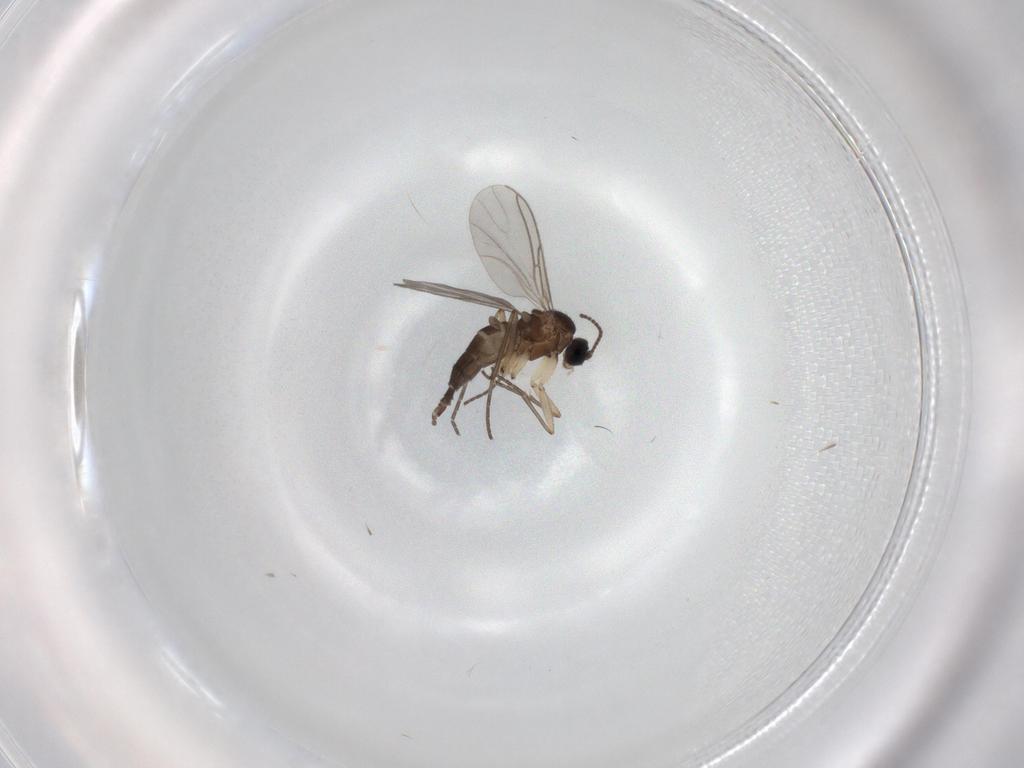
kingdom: Animalia
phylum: Arthropoda
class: Insecta
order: Diptera
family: Sciaridae
